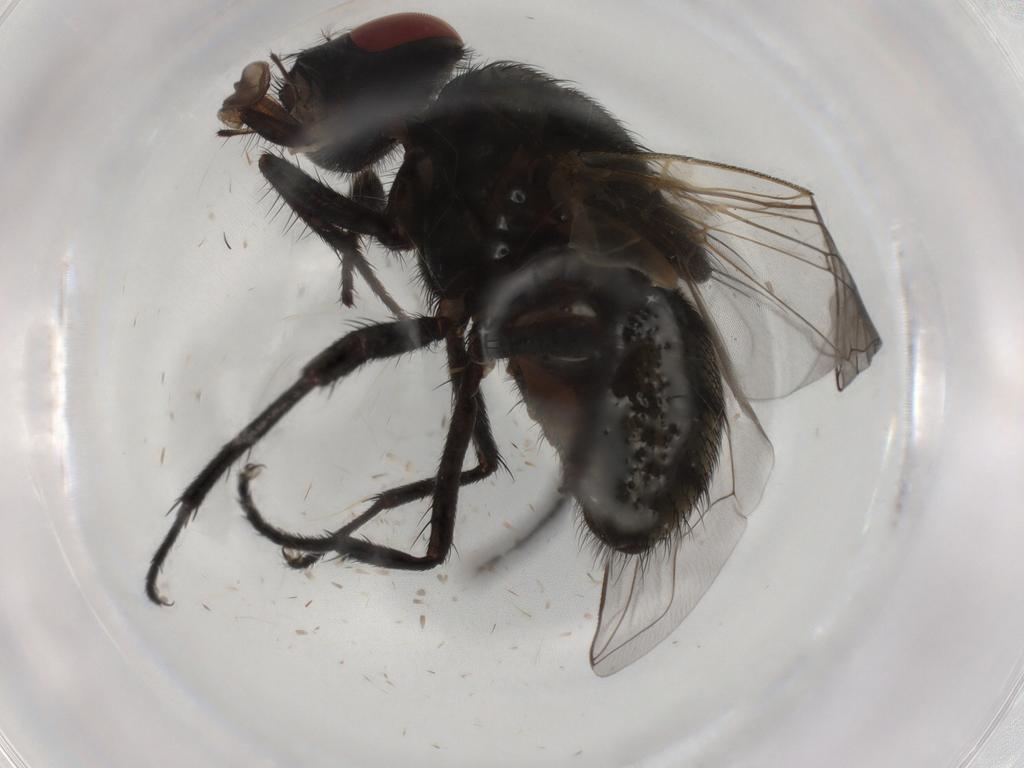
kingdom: Animalia
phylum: Arthropoda
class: Insecta
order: Diptera
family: Muscidae
